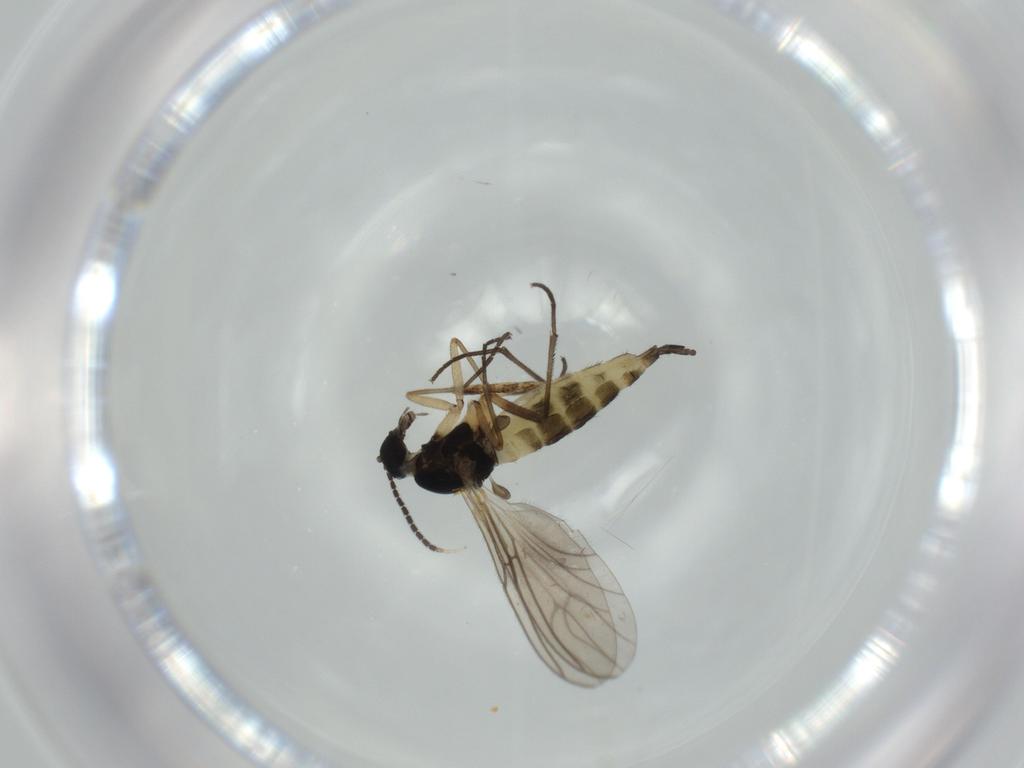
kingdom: Animalia
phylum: Arthropoda
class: Insecta
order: Diptera
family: Sciaridae
